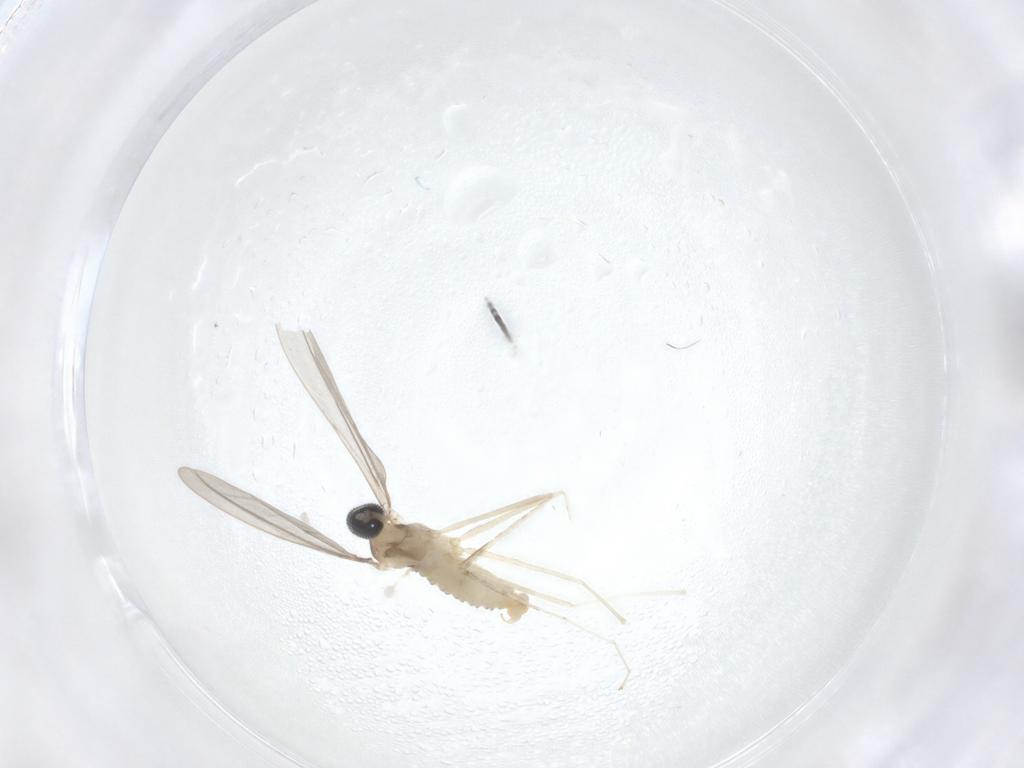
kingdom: Animalia
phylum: Arthropoda
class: Insecta
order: Diptera
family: Cecidomyiidae
